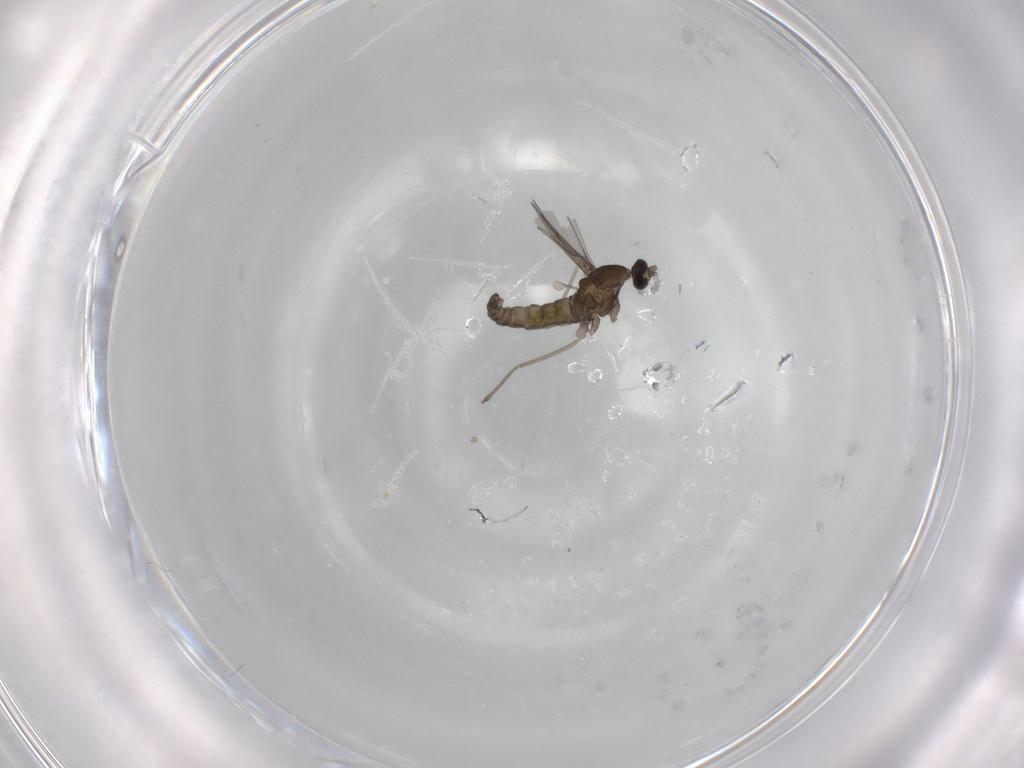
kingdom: Animalia
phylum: Arthropoda
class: Insecta
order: Diptera
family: Cecidomyiidae
